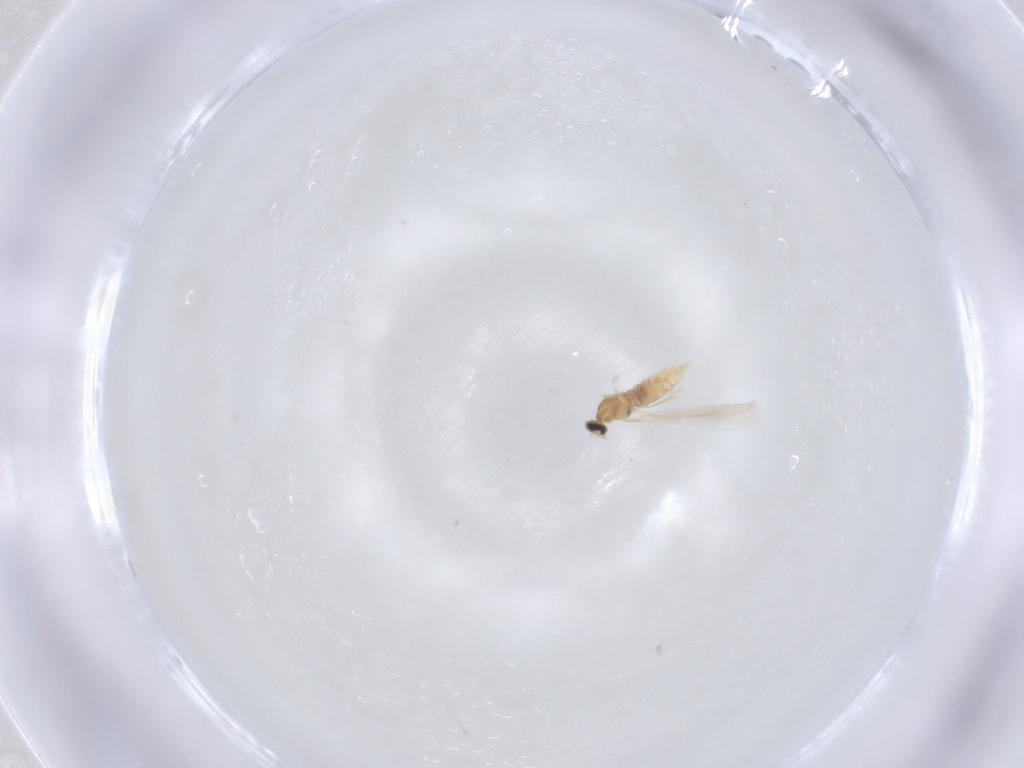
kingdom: Animalia
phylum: Arthropoda
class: Insecta
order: Diptera
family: Cecidomyiidae
